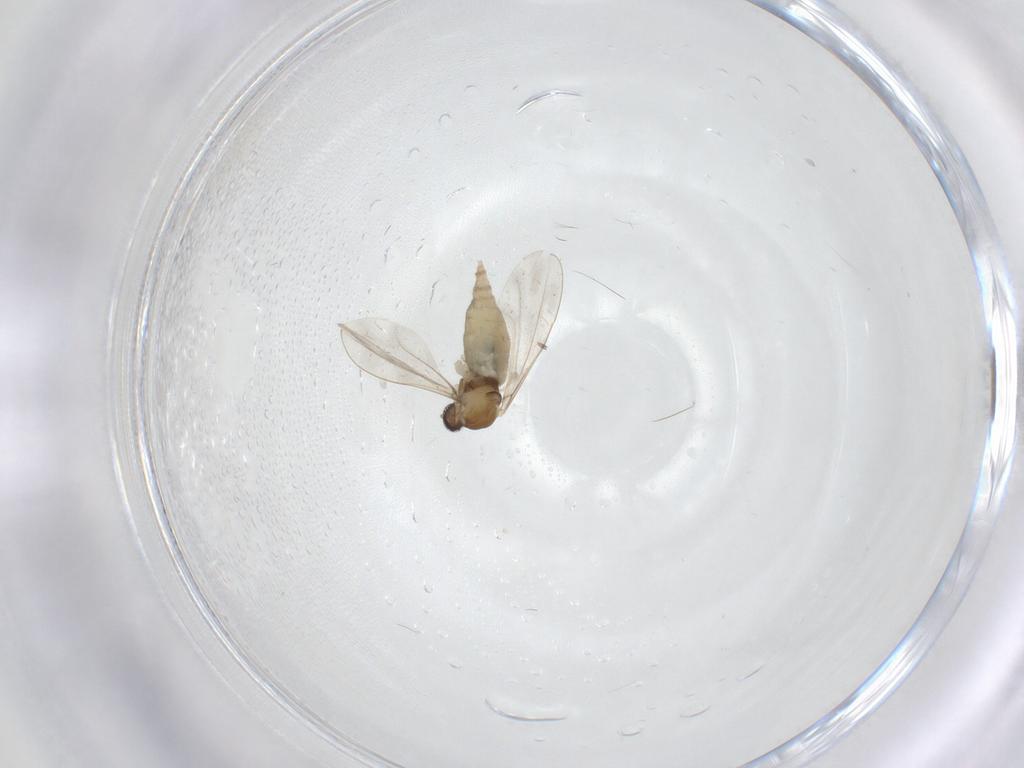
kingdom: Animalia
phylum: Arthropoda
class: Insecta
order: Diptera
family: Cecidomyiidae
